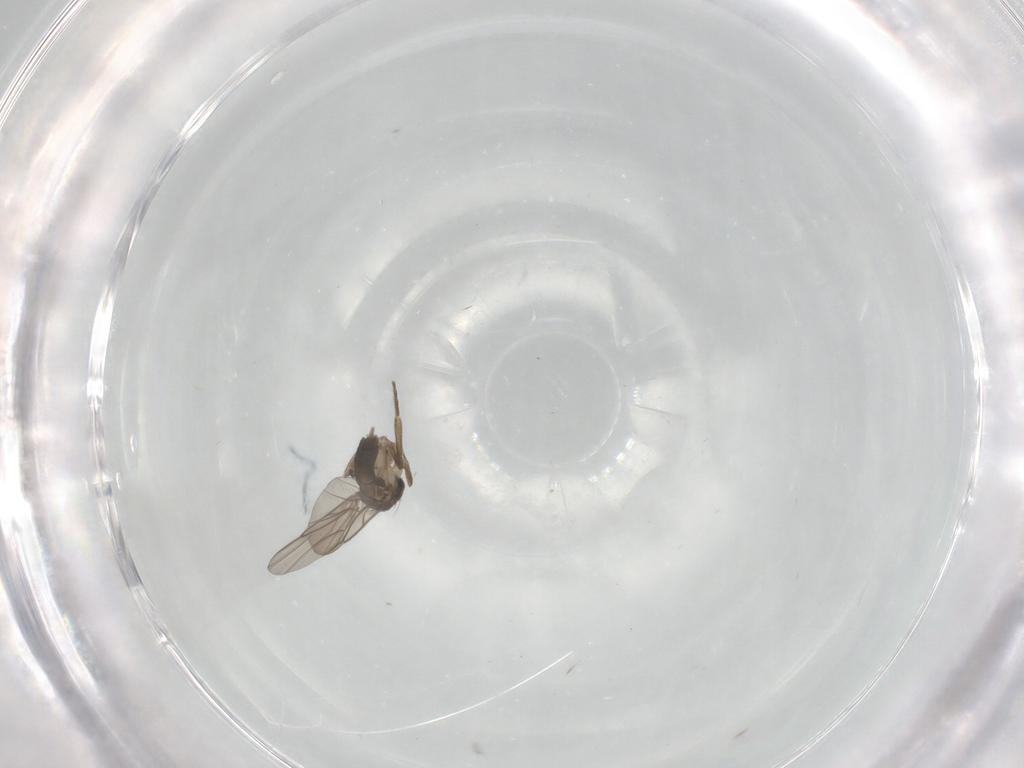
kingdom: Animalia
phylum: Arthropoda
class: Insecta
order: Diptera
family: Phoridae
